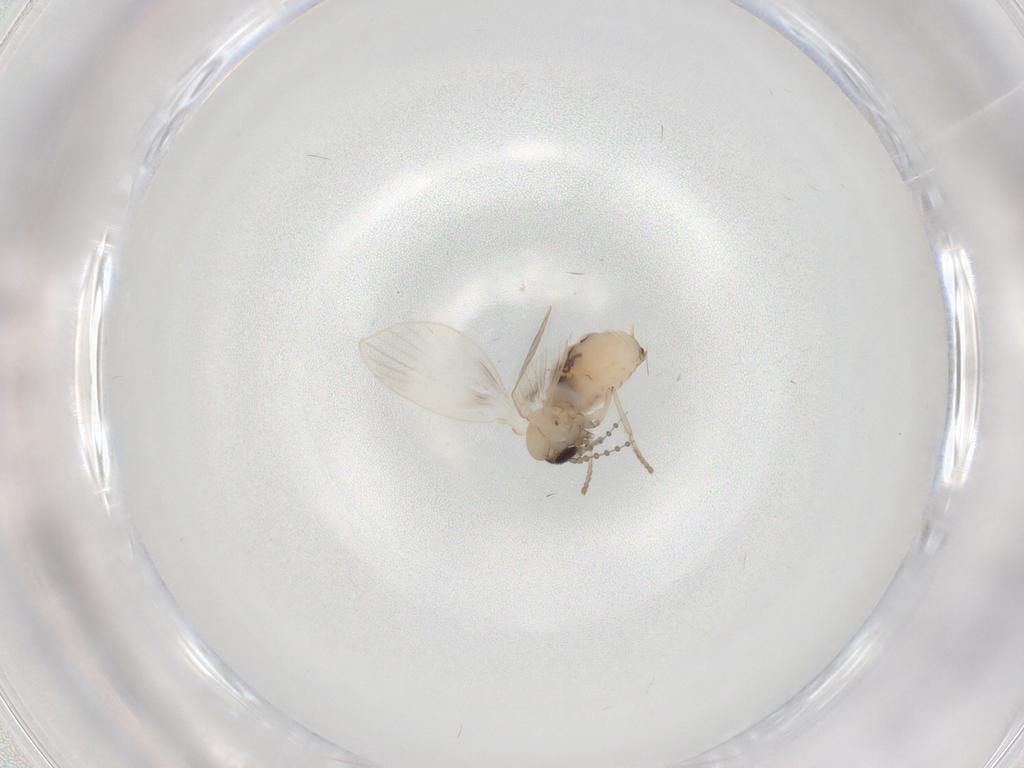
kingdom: Animalia
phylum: Arthropoda
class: Insecta
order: Diptera
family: Psychodidae
